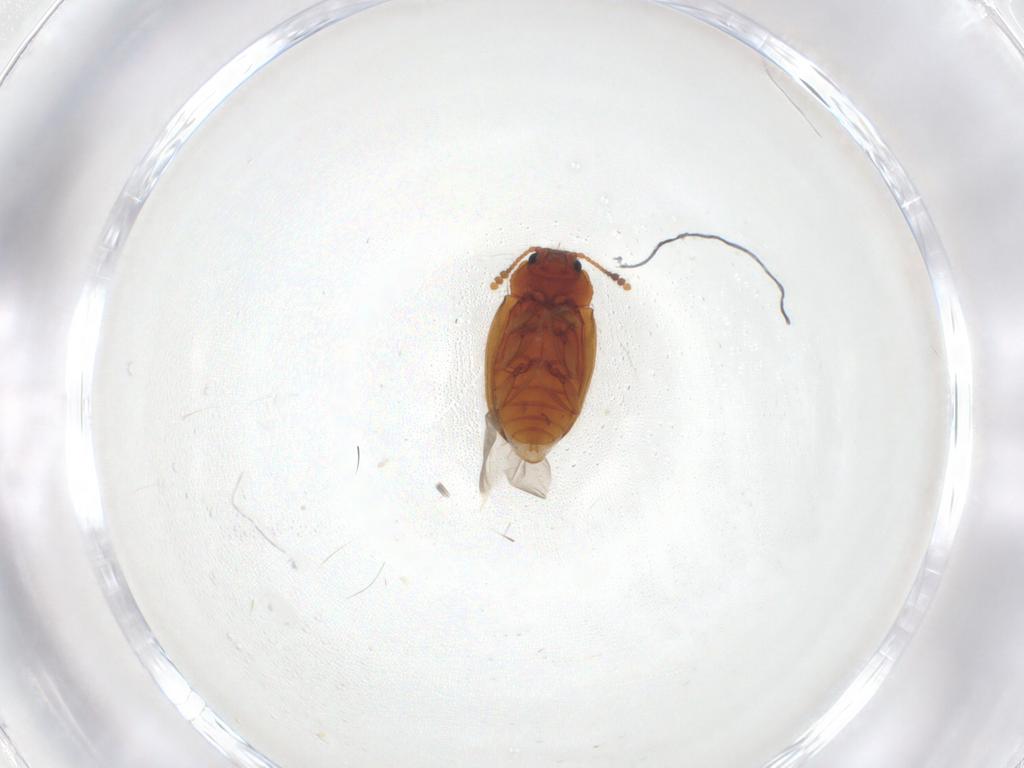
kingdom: Animalia
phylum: Arthropoda
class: Insecta
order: Coleoptera
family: Erotylidae
